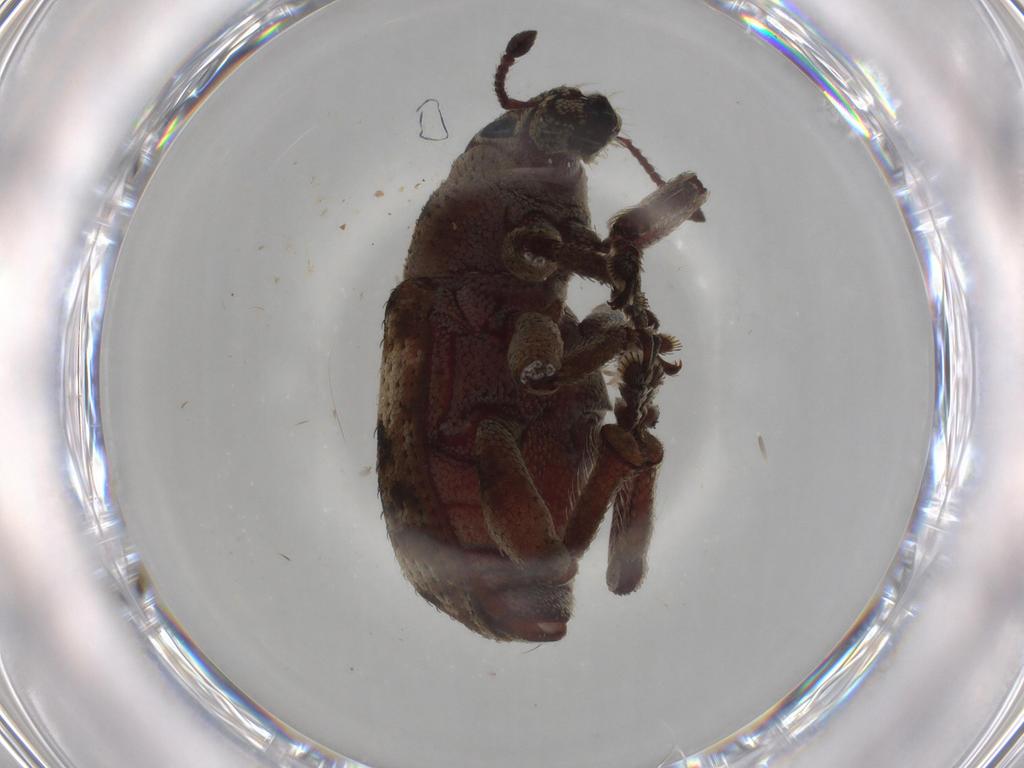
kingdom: Animalia
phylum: Arthropoda
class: Insecta
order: Coleoptera
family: Curculionidae
